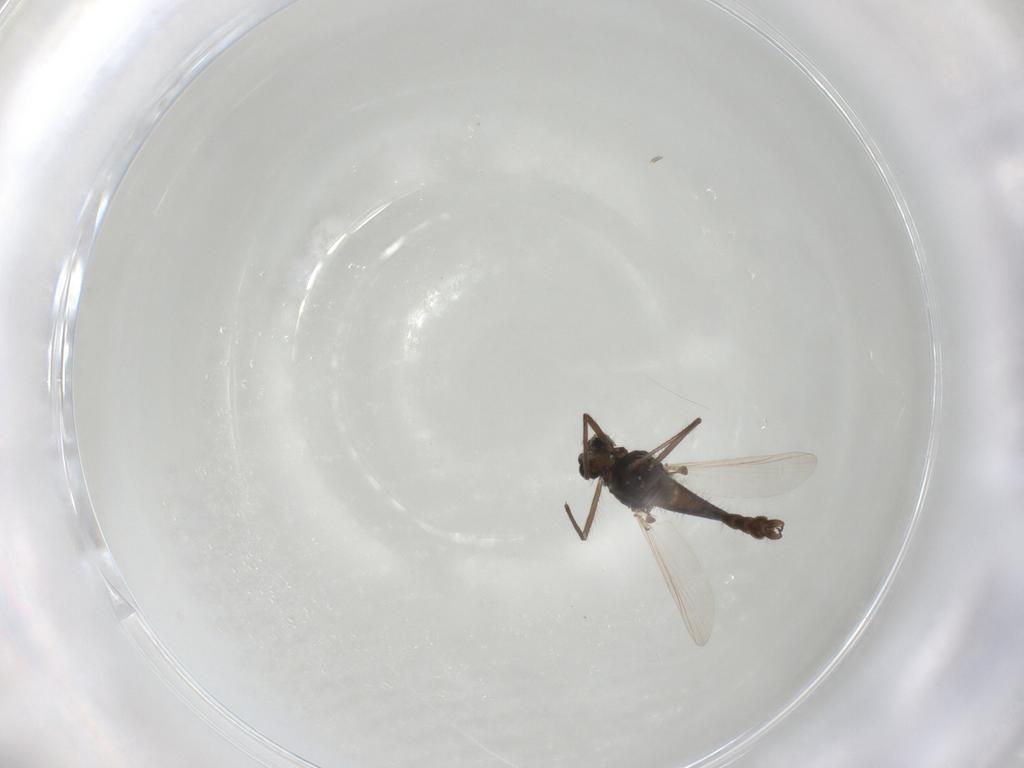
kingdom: Animalia
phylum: Arthropoda
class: Insecta
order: Diptera
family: Chironomidae
